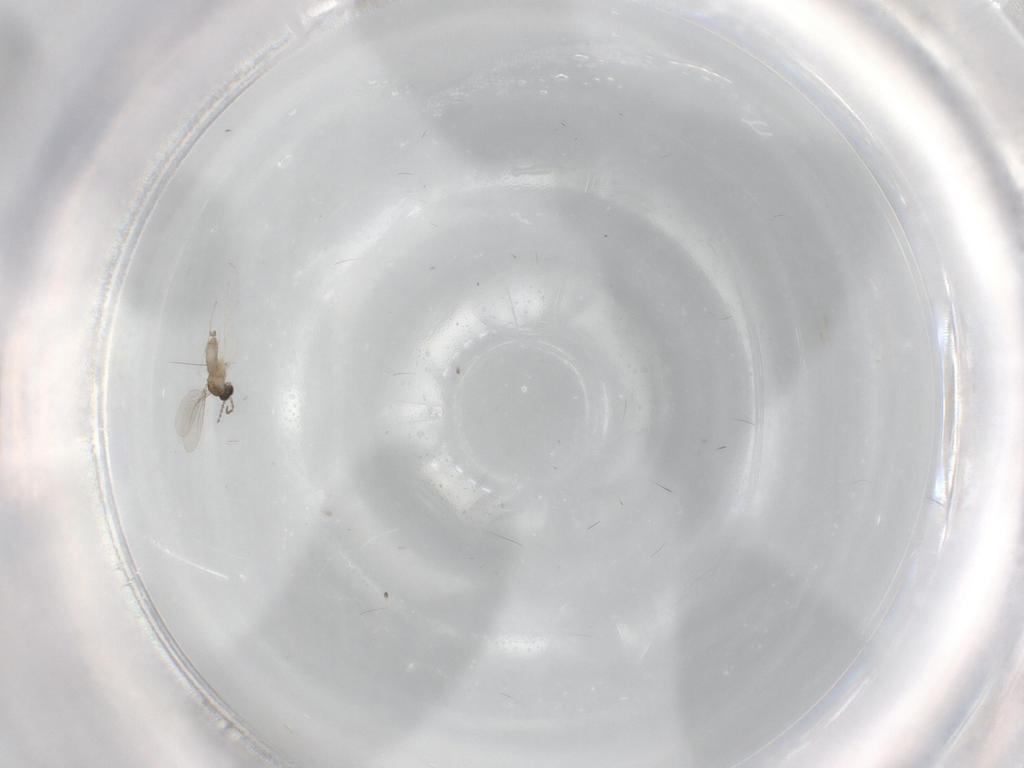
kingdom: Animalia
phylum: Arthropoda
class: Insecta
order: Diptera
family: Cecidomyiidae
